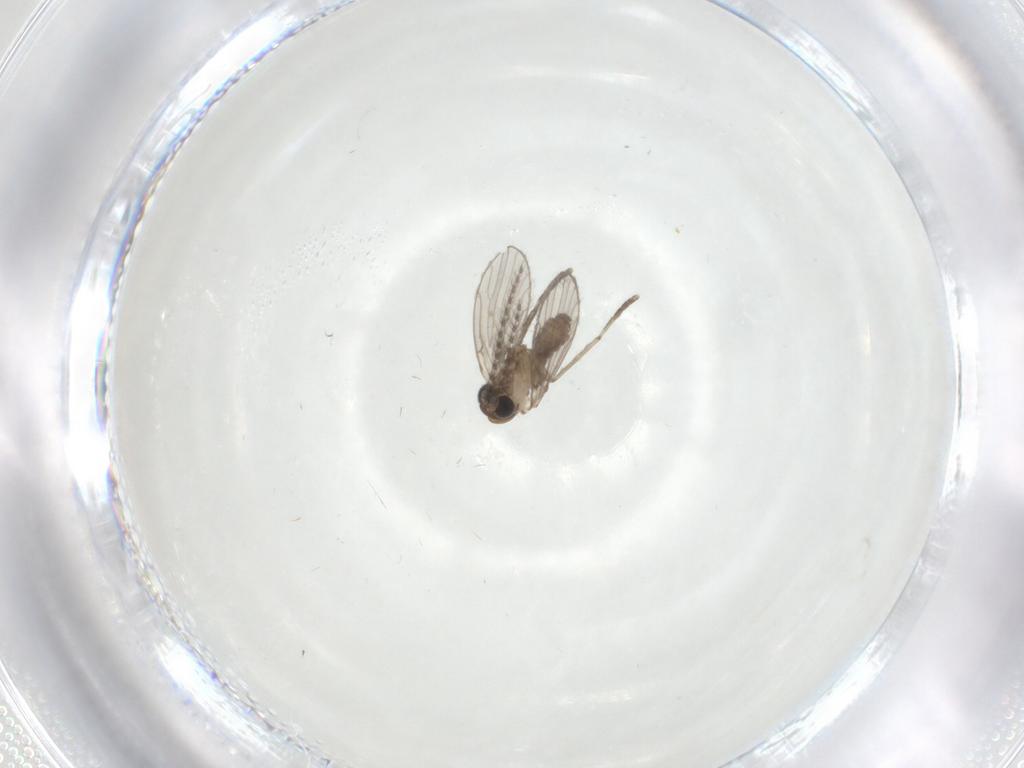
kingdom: Animalia
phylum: Arthropoda
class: Insecta
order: Diptera
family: Psychodidae
